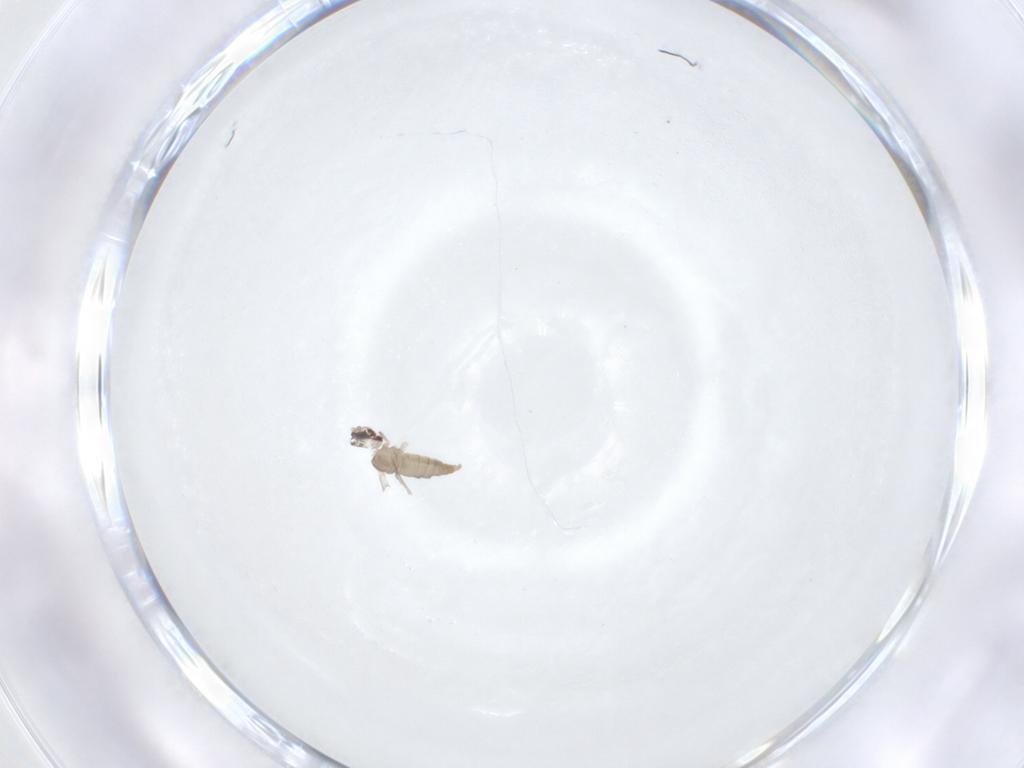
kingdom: Animalia
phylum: Arthropoda
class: Insecta
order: Diptera
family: Cecidomyiidae
